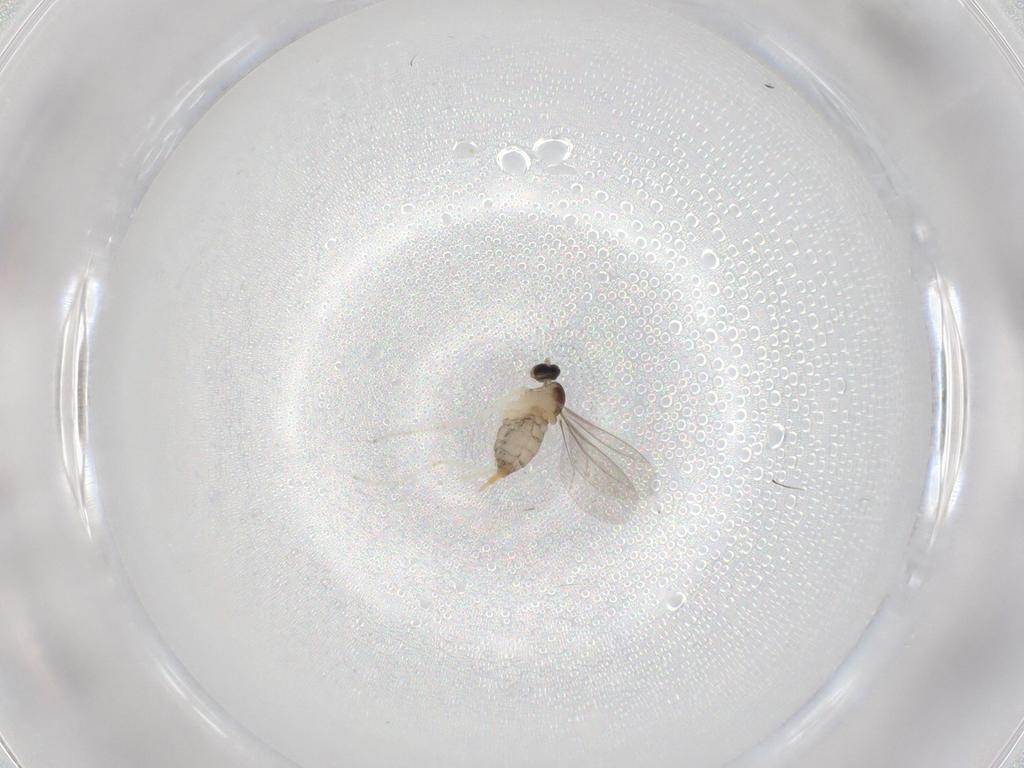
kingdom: Animalia
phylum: Arthropoda
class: Insecta
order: Diptera
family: Cecidomyiidae
